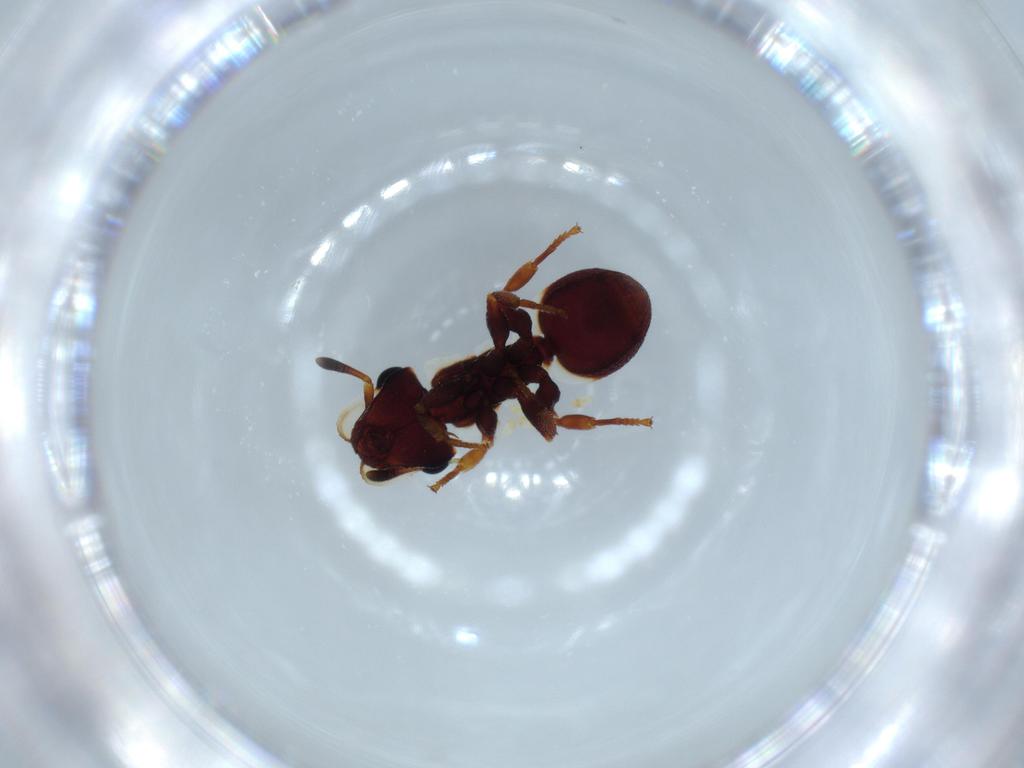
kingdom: Animalia
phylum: Arthropoda
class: Insecta
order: Hymenoptera
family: Formicidae
